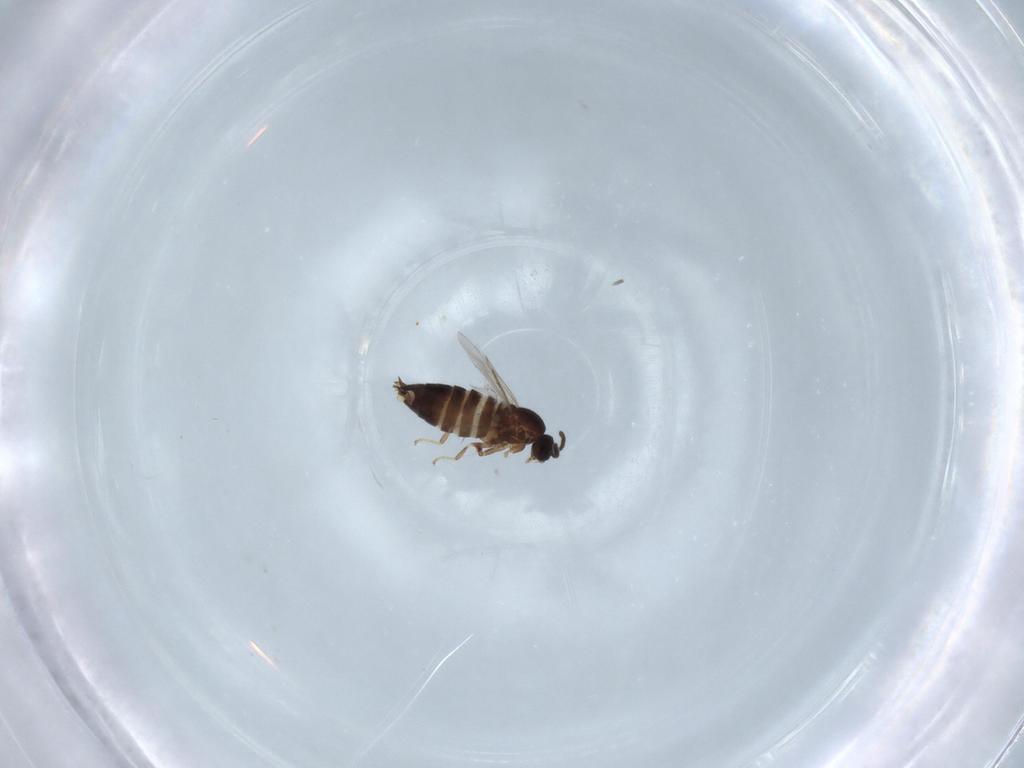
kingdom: Animalia
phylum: Arthropoda
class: Insecta
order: Diptera
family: Scatopsidae
